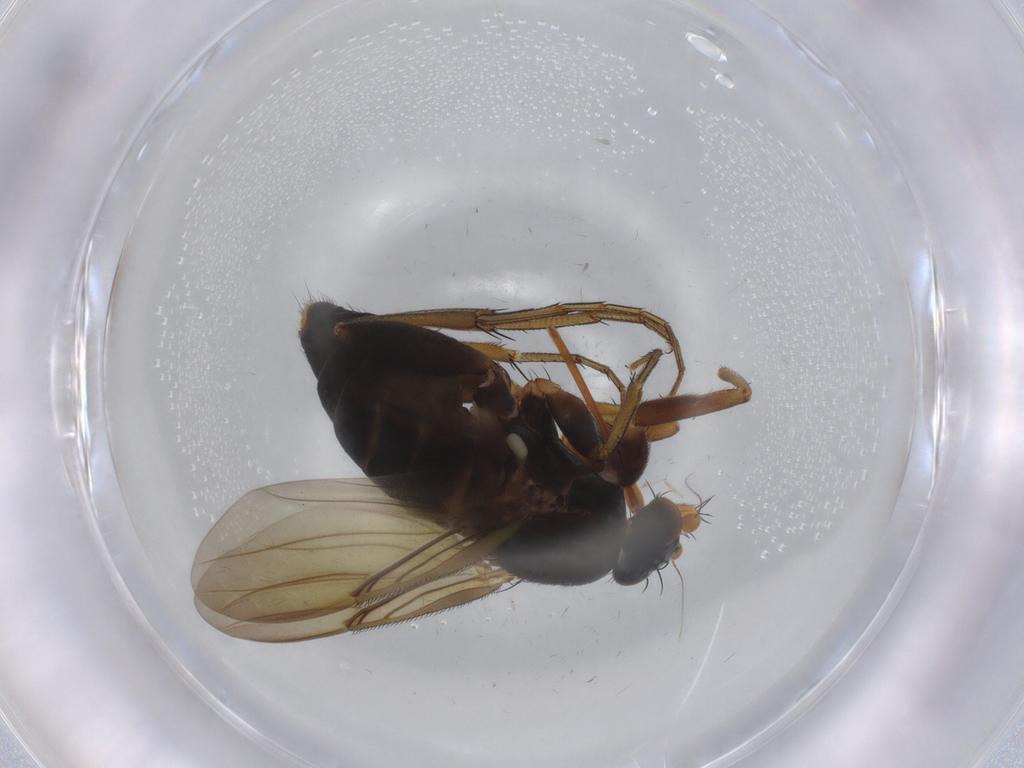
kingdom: Animalia
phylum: Arthropoda
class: Insecta
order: Diptera
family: Phoridae
